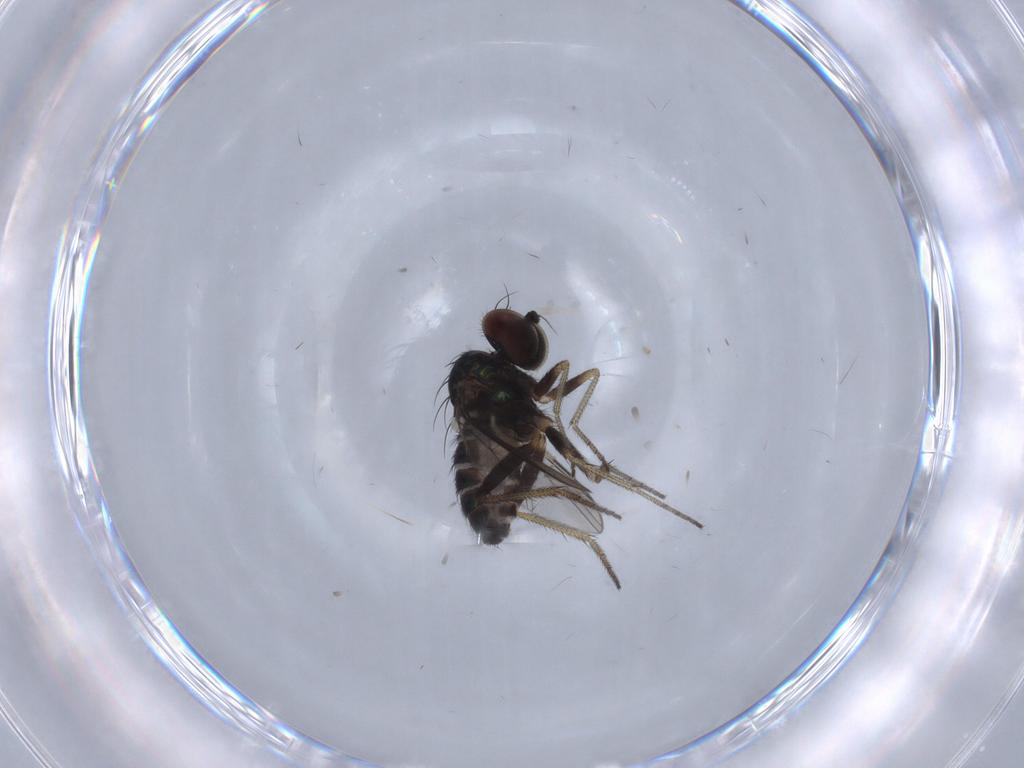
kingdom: Animalia
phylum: Arthropoda
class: Insecta
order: Diptera
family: Dolichopodidae
